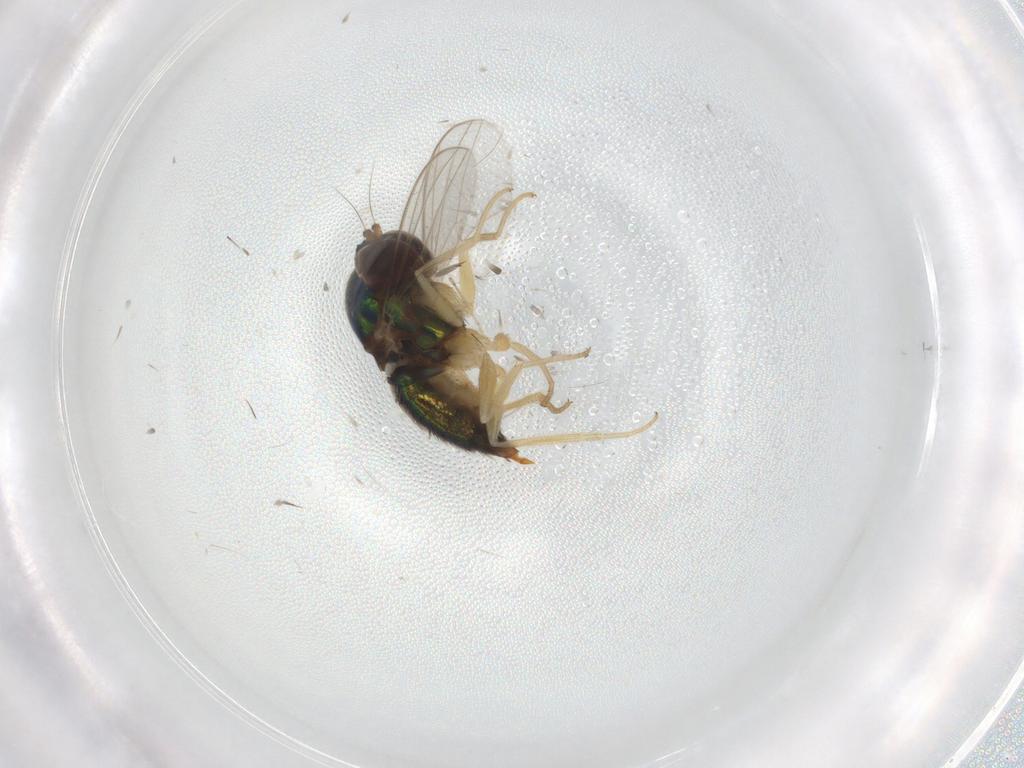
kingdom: Animalia
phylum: Arthropoda
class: Insecta
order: Diptera
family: Dolichopodidae
